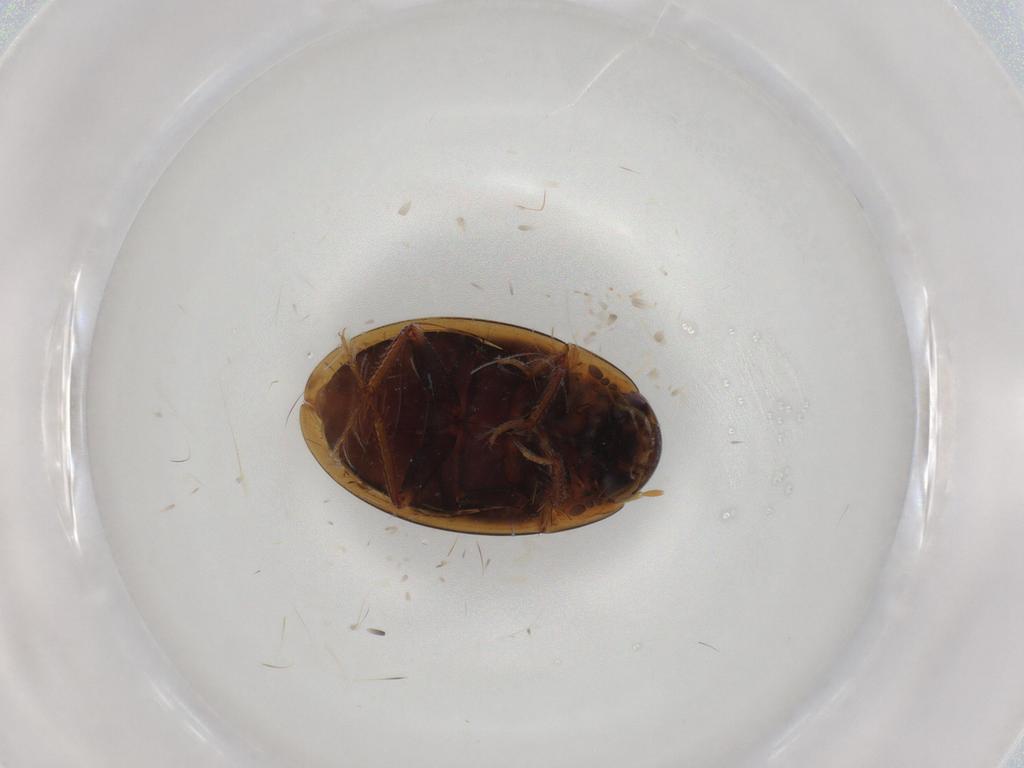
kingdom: Animalia
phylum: Arthropoda
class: Insecta
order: Coleoptera
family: Hydrophilidae
